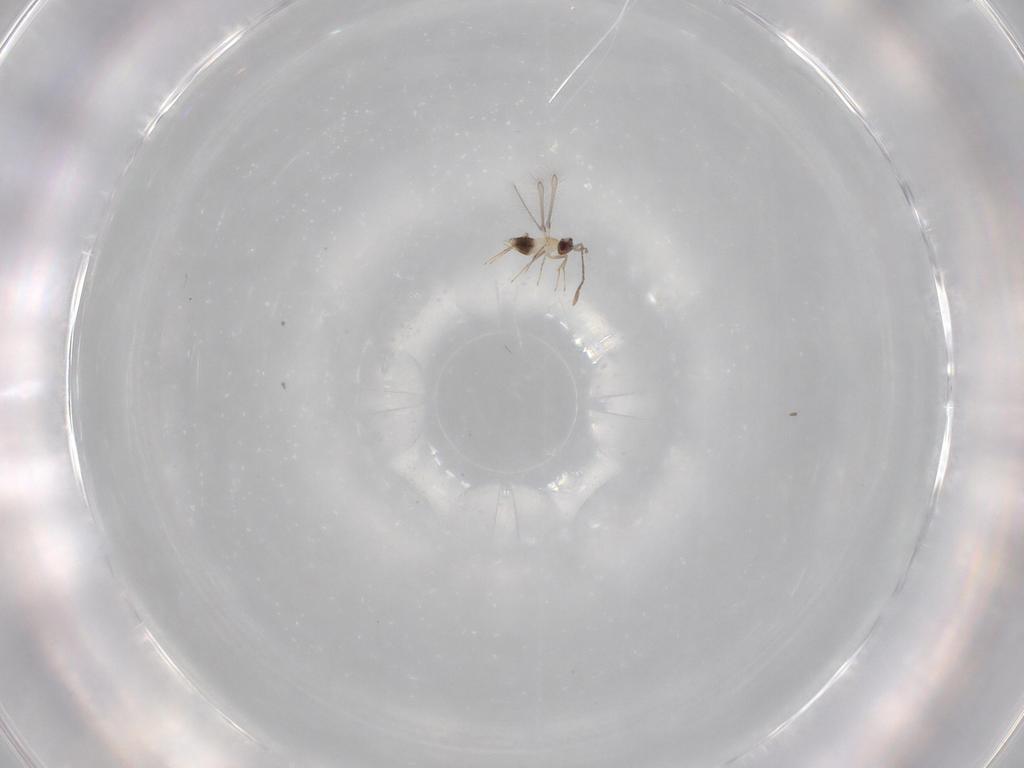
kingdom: Animalia
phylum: Arthropoda
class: Insecta
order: Hymenoptera
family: Mymaridae
